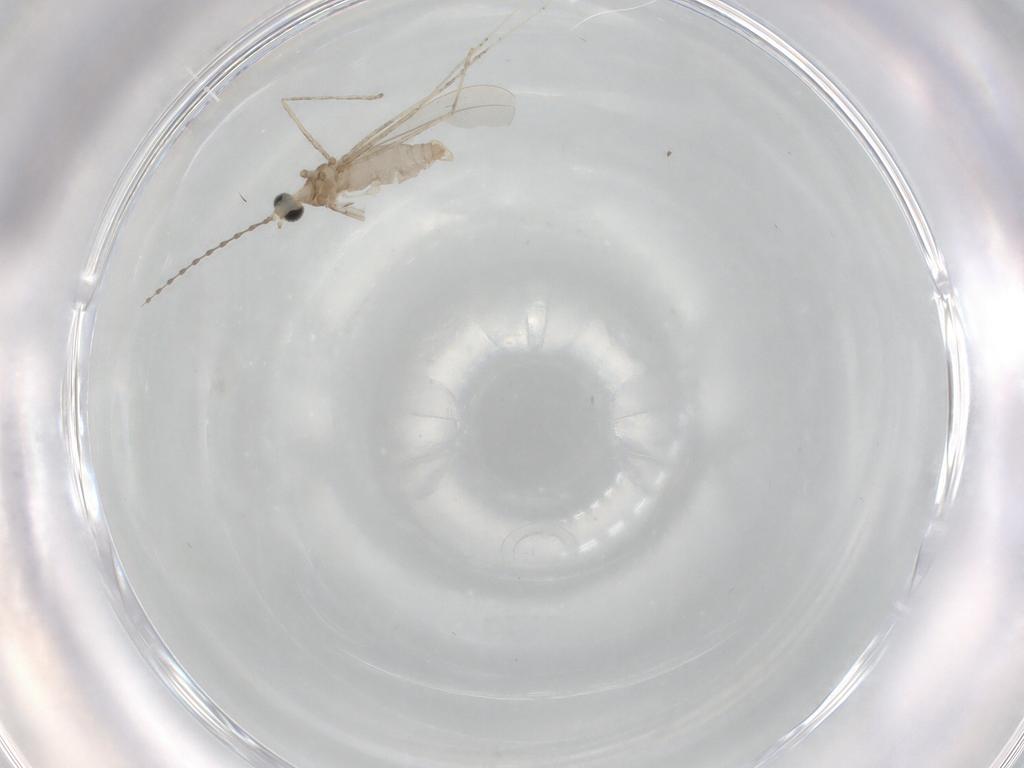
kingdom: Animalia
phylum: Arthropoda
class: Insecta
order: Diptera
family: Cecidomyiidae
